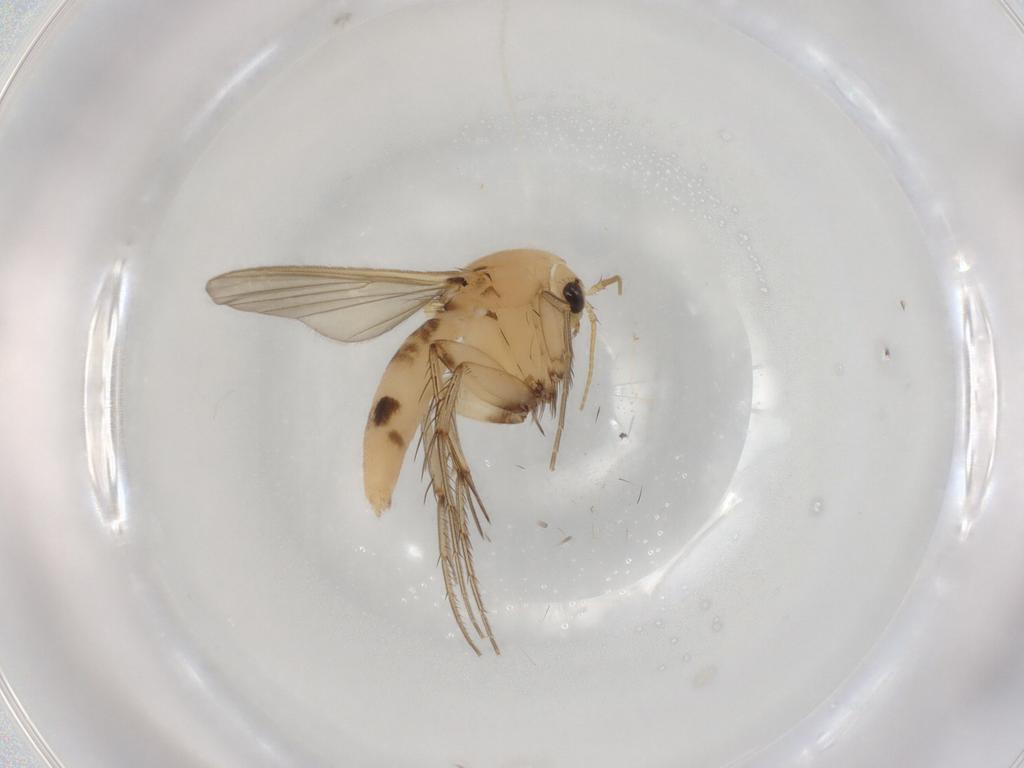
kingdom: Animalia
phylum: Arthropoda
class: Insecta
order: Diptera
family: Mycetophilidae
